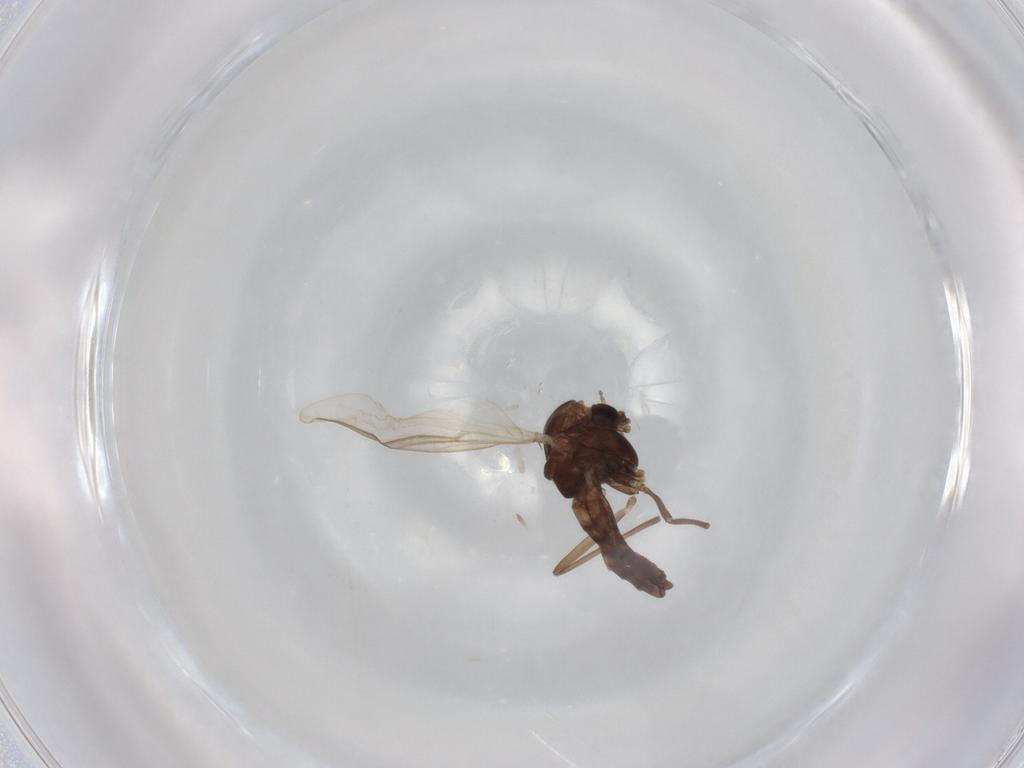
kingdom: Animalia
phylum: Arthropoda
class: Insecta
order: Diptera
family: Chironomidae
